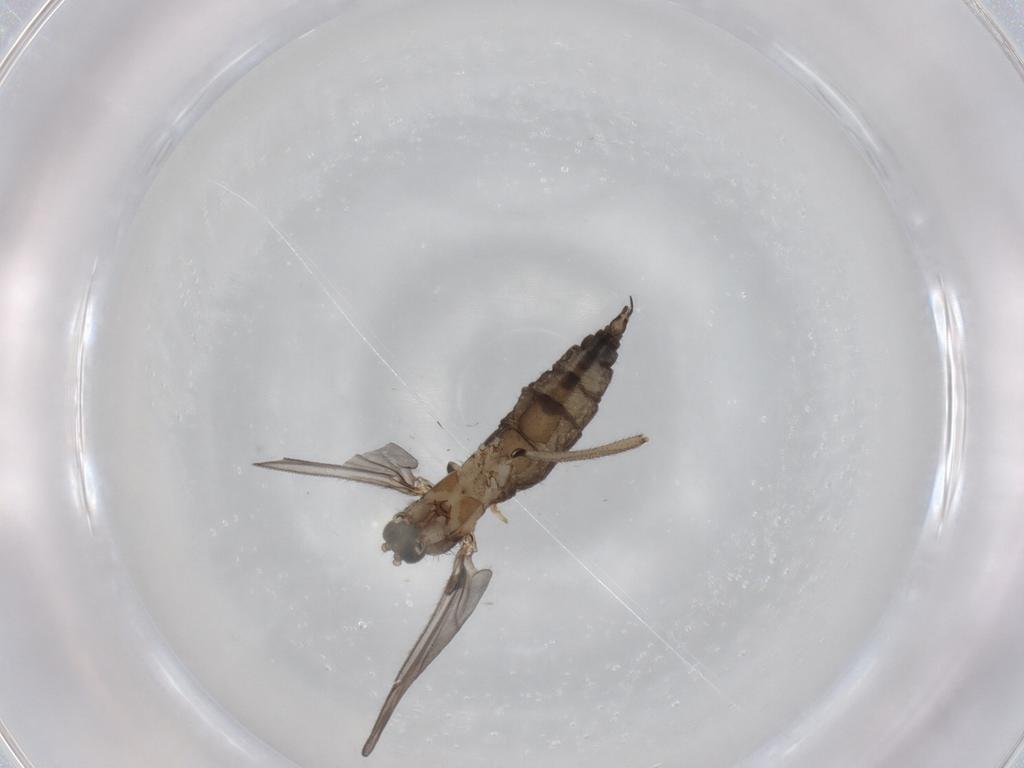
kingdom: Animalia
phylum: Arthropoda
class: Insecta
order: Diptera
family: Sciaridae
